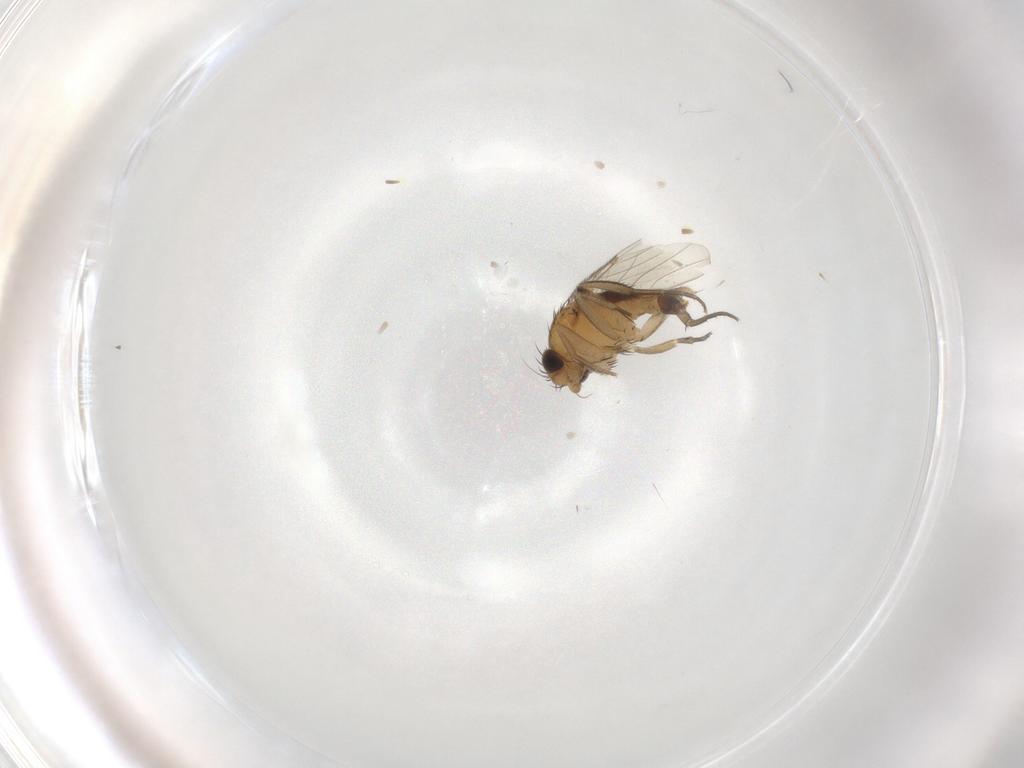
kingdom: Animalia
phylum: Arthropoda
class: Insecta
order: Diptera
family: Phoridae
